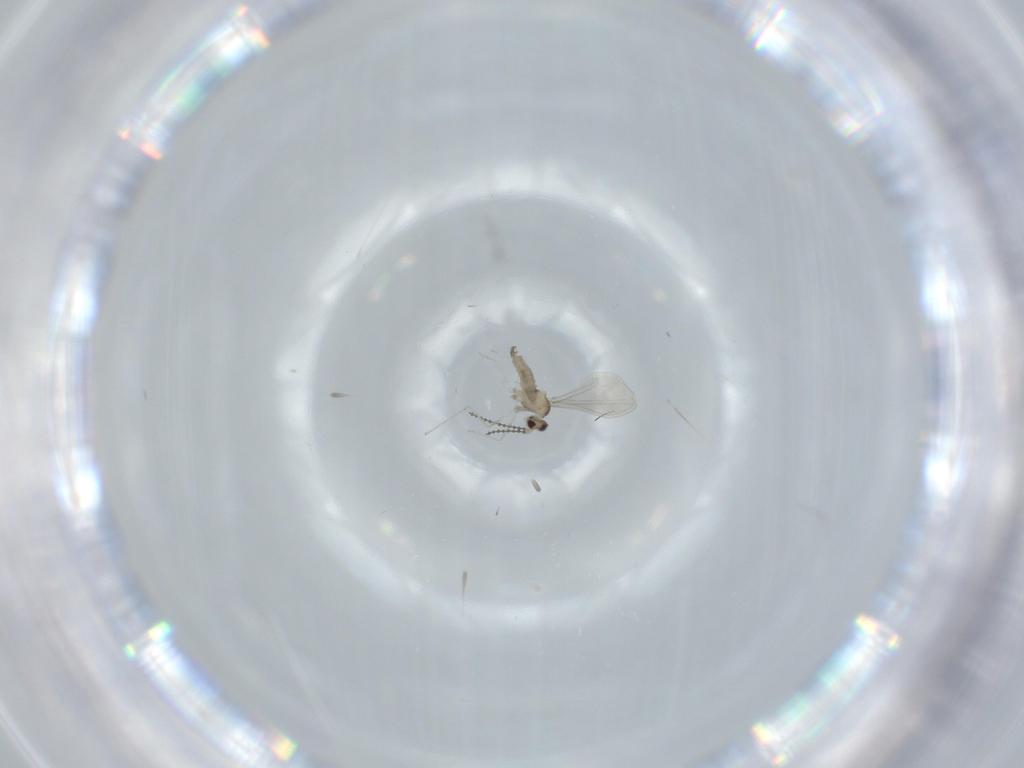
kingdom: Animalia
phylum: Arthropoda
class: Insecta
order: Diptera
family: Cecidomyiidae
